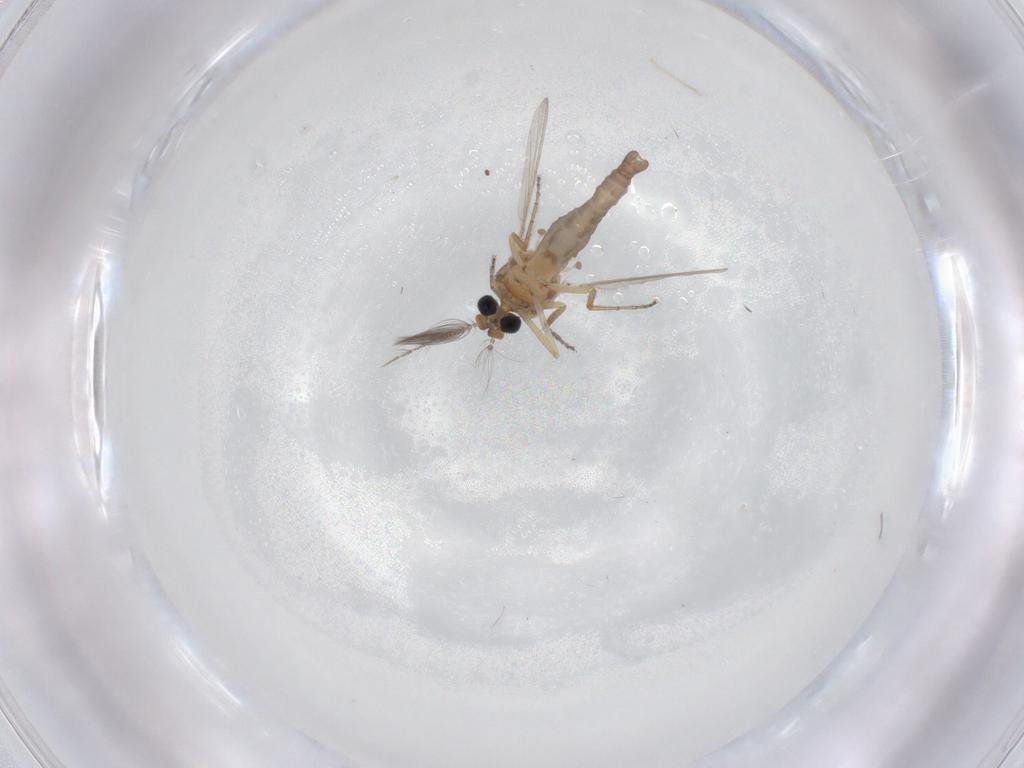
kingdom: Animalia
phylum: Arthropoda
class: Insecta
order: Diptera
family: Ceratopogonidae
